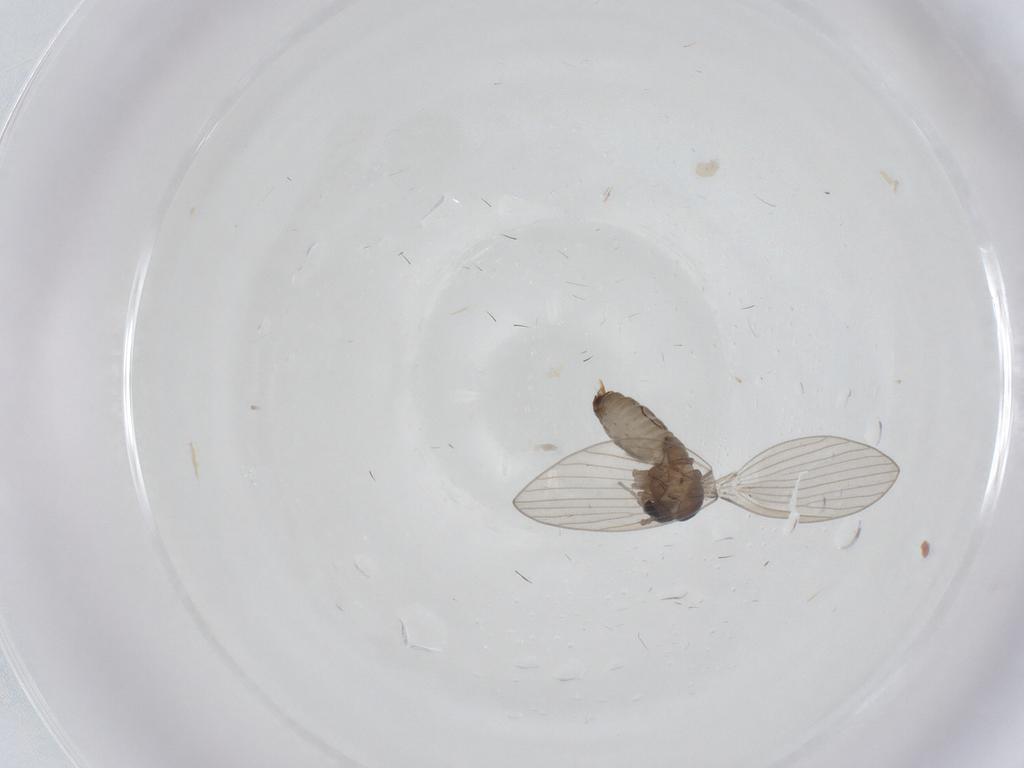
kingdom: Animalia
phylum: Arthropoda
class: Insecta
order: Diptera
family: Psychodidae
